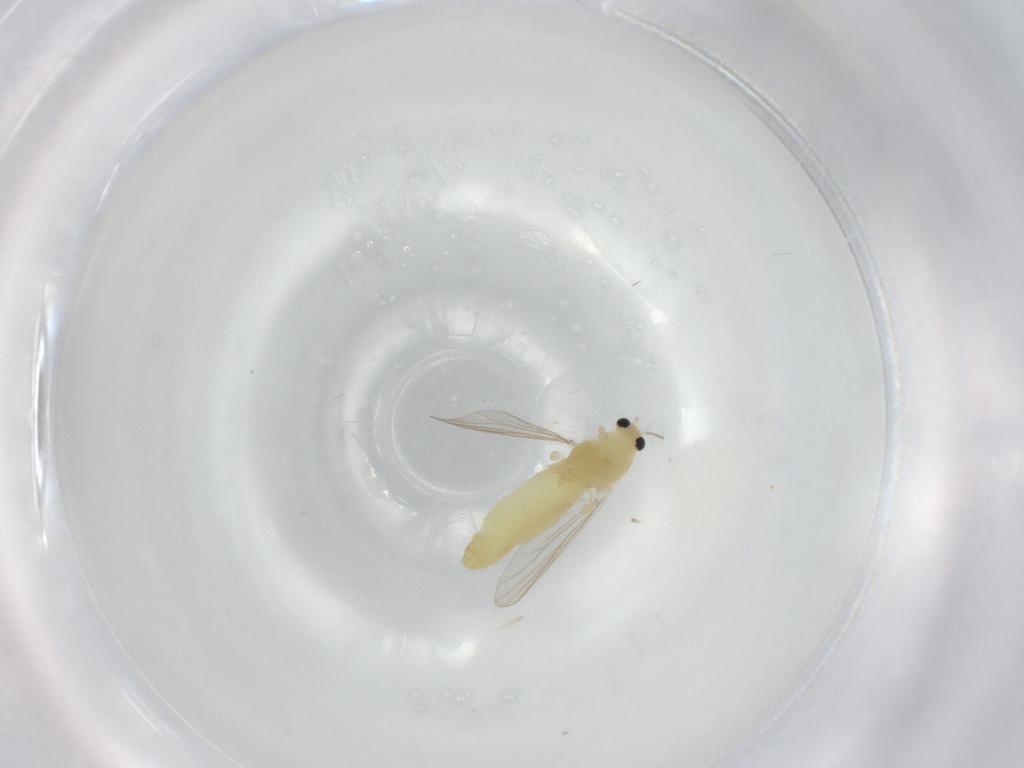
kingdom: Animalia
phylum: Arthropoda
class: Insecta
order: Diptera
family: Chironomidae
